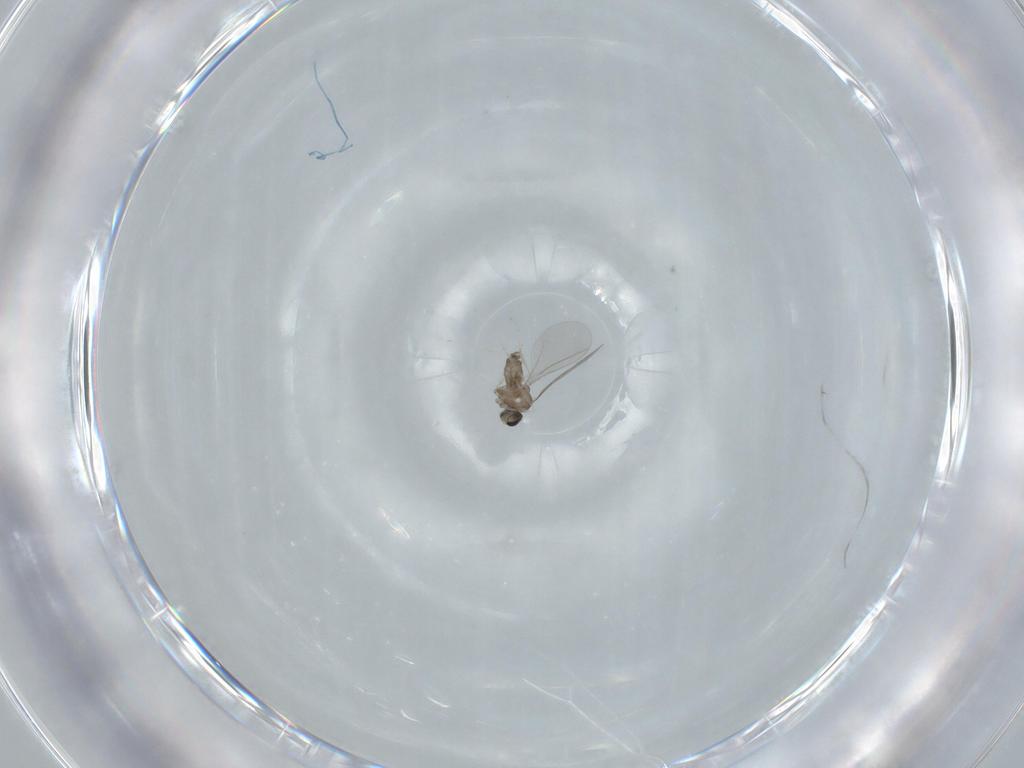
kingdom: Animalia
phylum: Arthropoda
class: Insecta
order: Diptera
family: Cecidomyiidae
